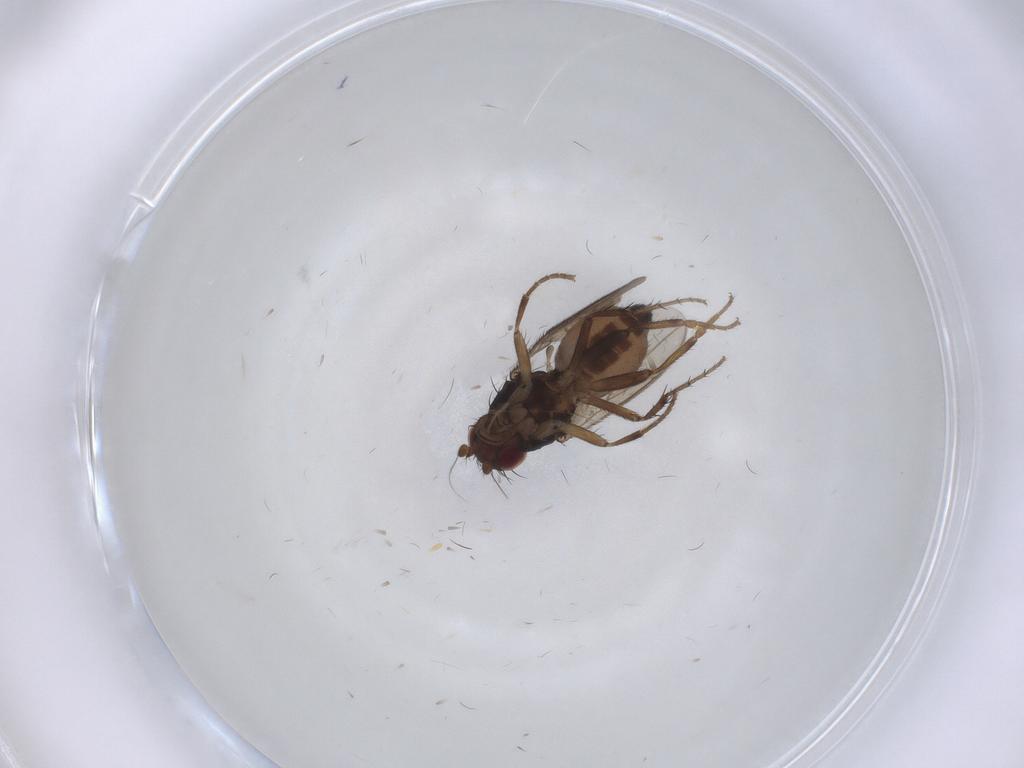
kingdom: Animalia
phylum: Arthropoda
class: Insecta
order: Diptera
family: Sphaeroceridae
